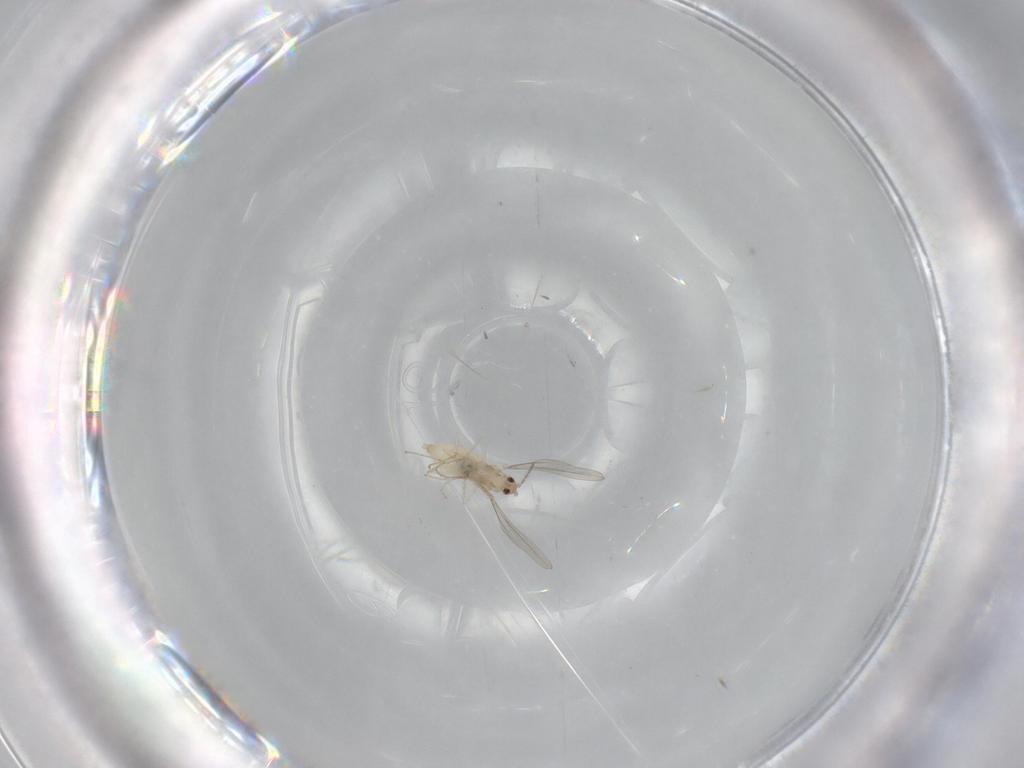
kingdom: Animalia
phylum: Arthropoda
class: Insecta
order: Diptera
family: Cecidomyiidae
